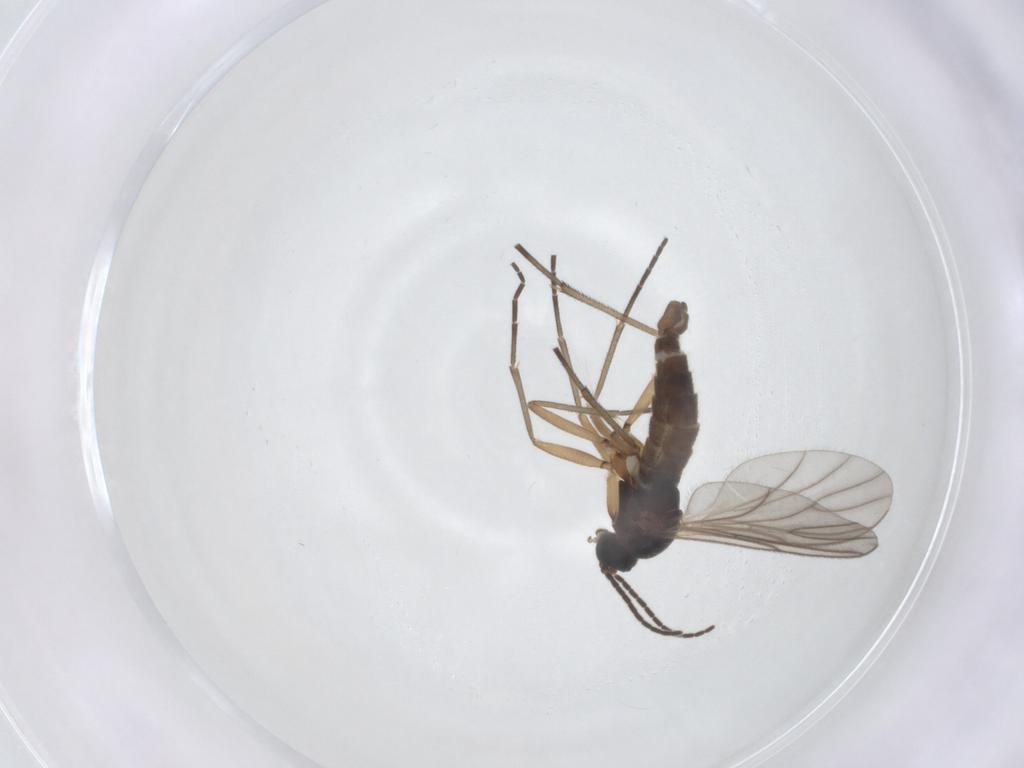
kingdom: Animalia
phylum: Arthropoda
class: Insecta
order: Diptera
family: Sciaridae
